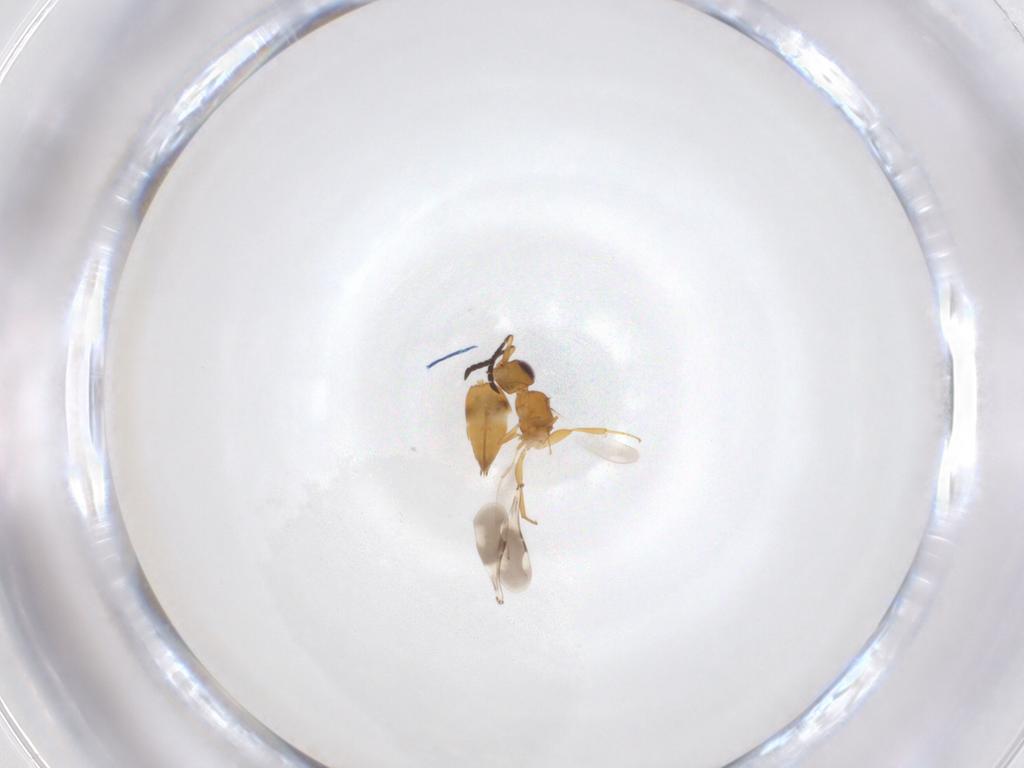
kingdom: Animalia
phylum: Arthropoda
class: Insecta
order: Hymenoptera
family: Ceraphronidae
